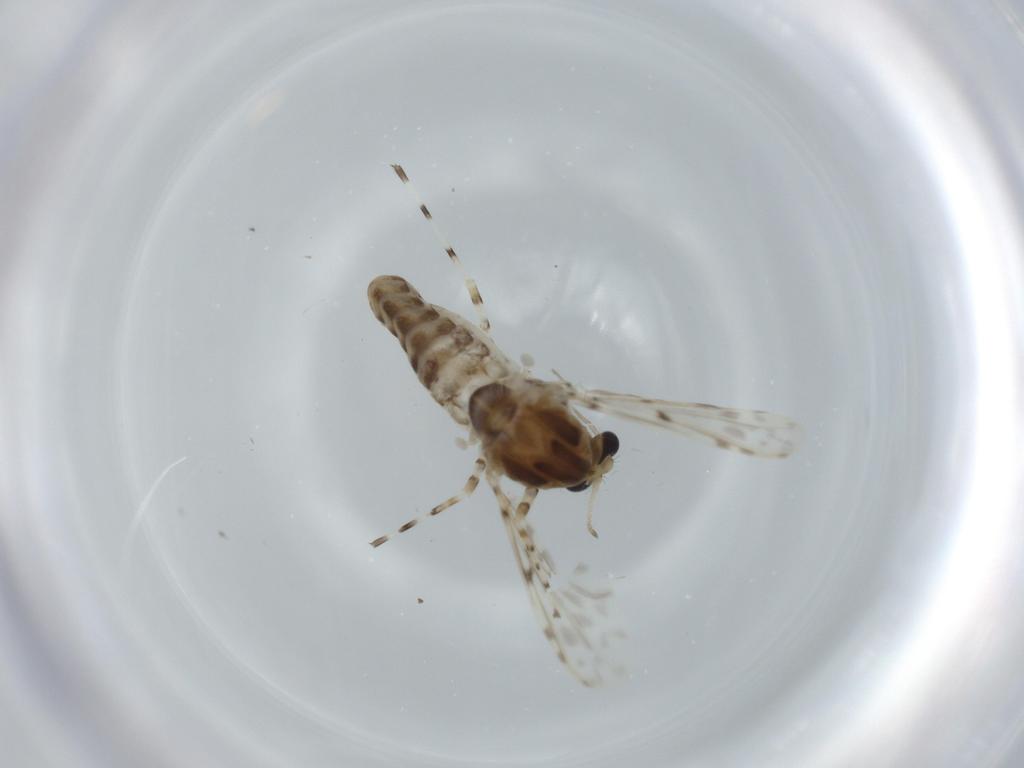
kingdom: Animalia
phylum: Arthropoda
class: Insecta
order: Diptera
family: Chironomidae
